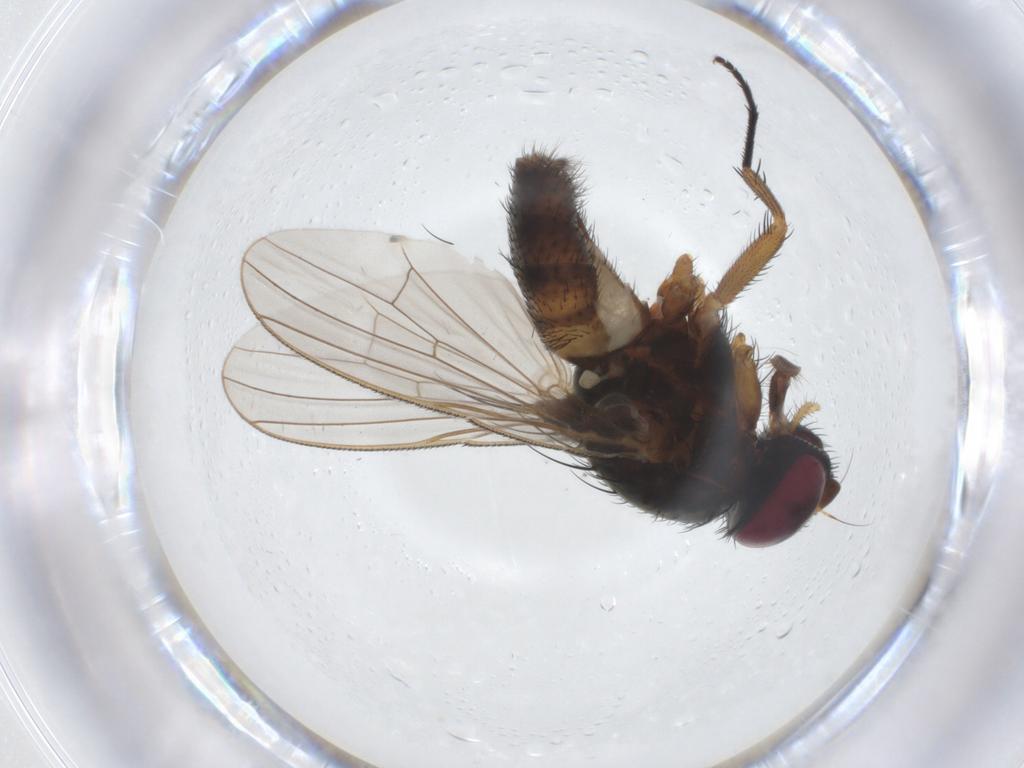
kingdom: Animalia
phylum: Arthropoda
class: Insecta
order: Diptera
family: Fannia
